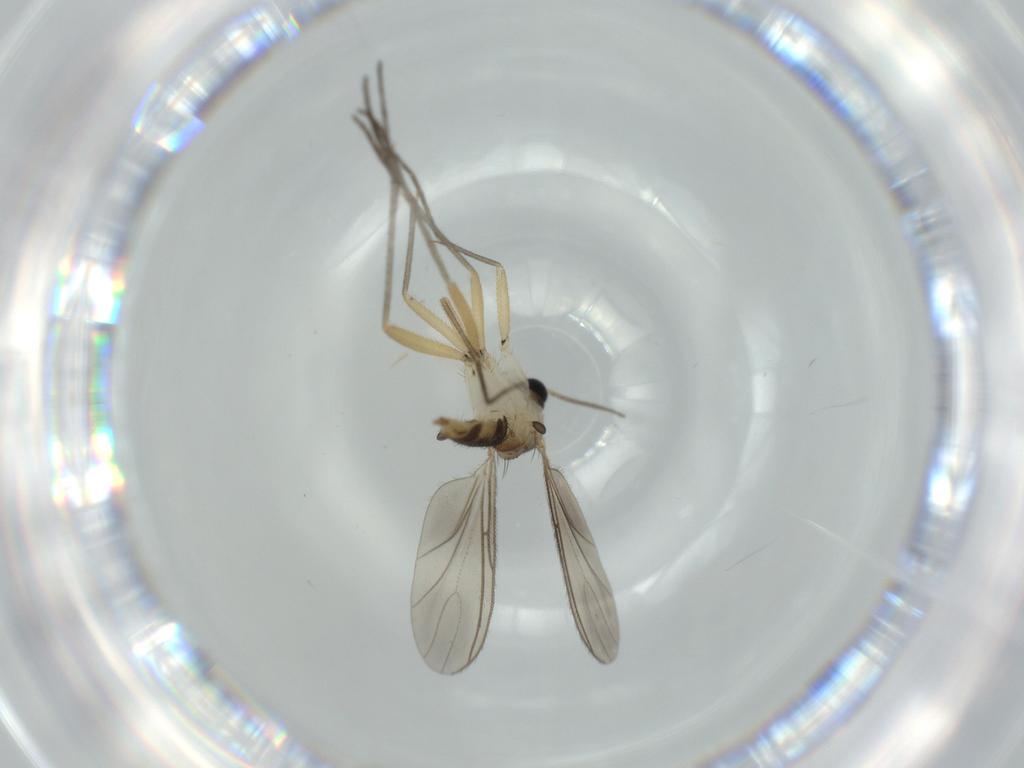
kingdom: Animalia
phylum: Arthropoda
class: Insecta
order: Diptera
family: Sciaridae
